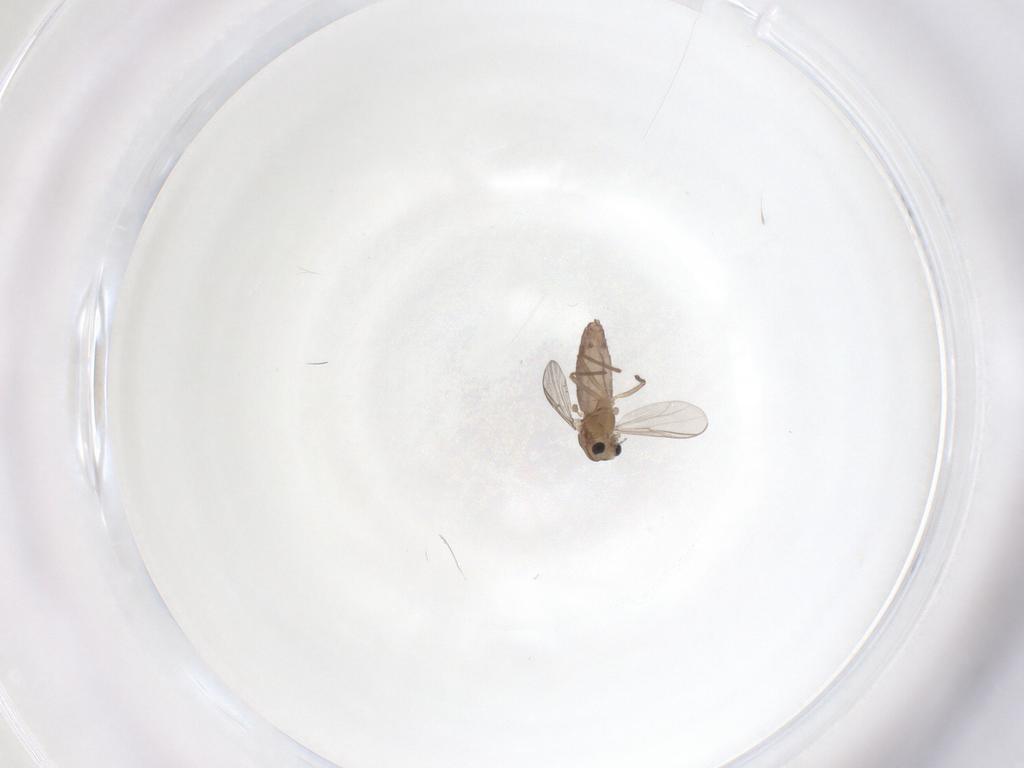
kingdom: Animalia
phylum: Arthropoda
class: Insecta
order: Diptera
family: Chironomidae
